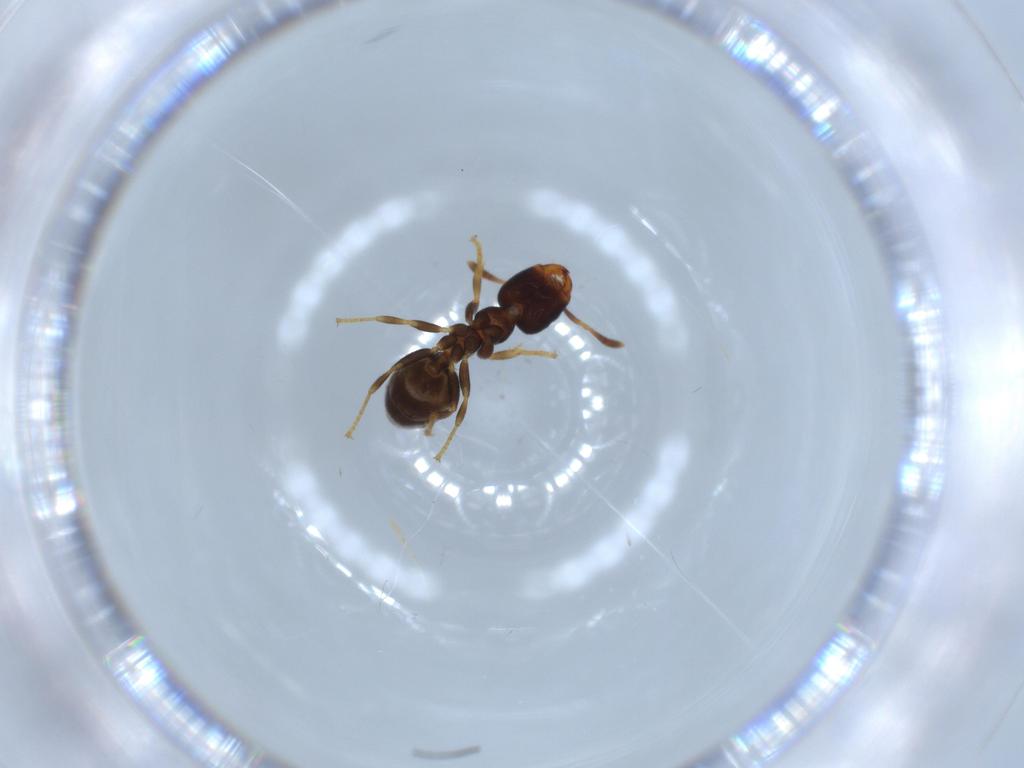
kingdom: Animalia
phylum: Arthropoda
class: Insecta
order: Hymenoptera
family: Formicidae
